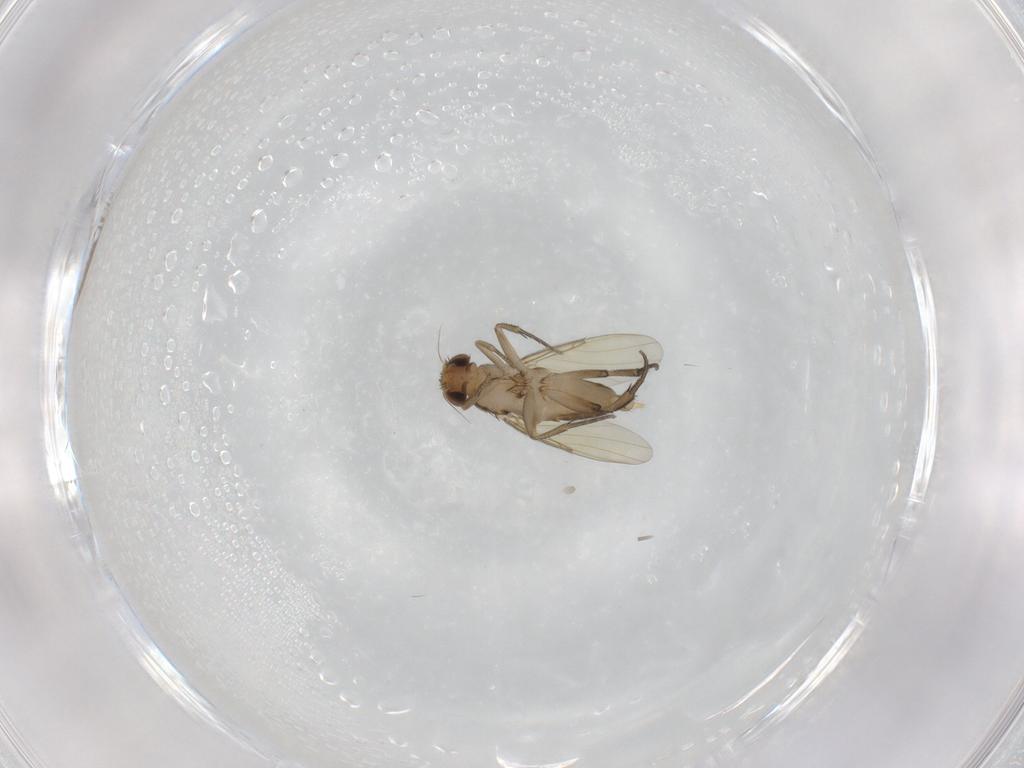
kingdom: Animalia
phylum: Arthropoda
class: Insecta
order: Diptera
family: Phoridae
